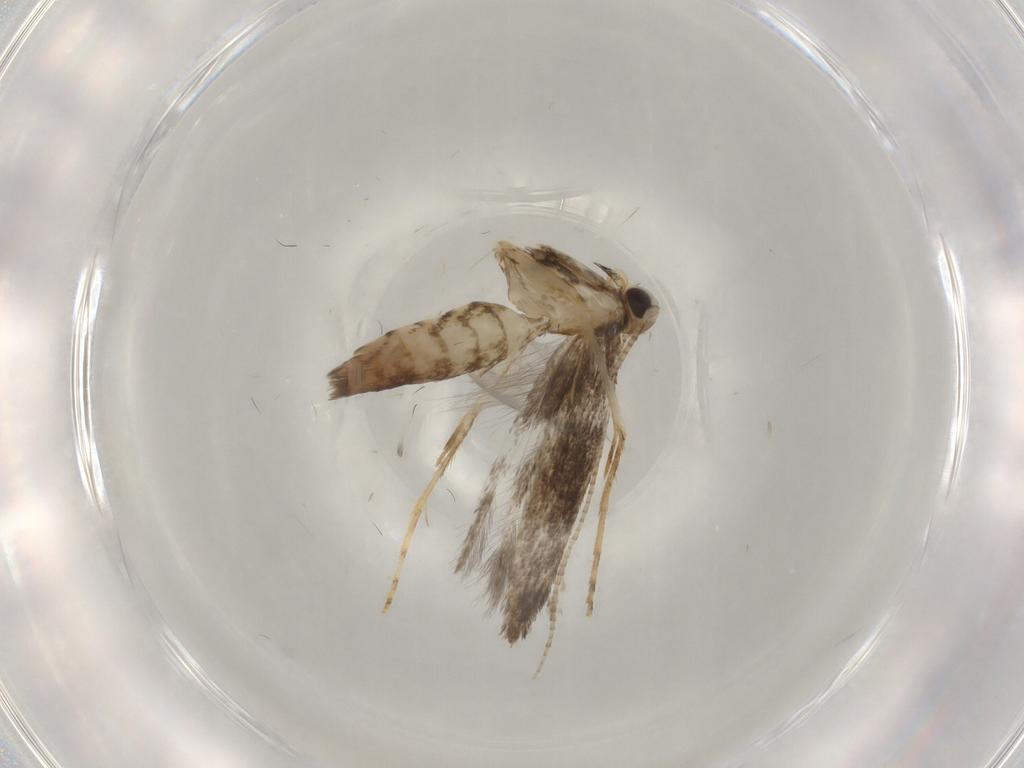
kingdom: Animalia
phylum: Arthropoda
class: Insecta
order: Lepidoptera
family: Gracillariidae
